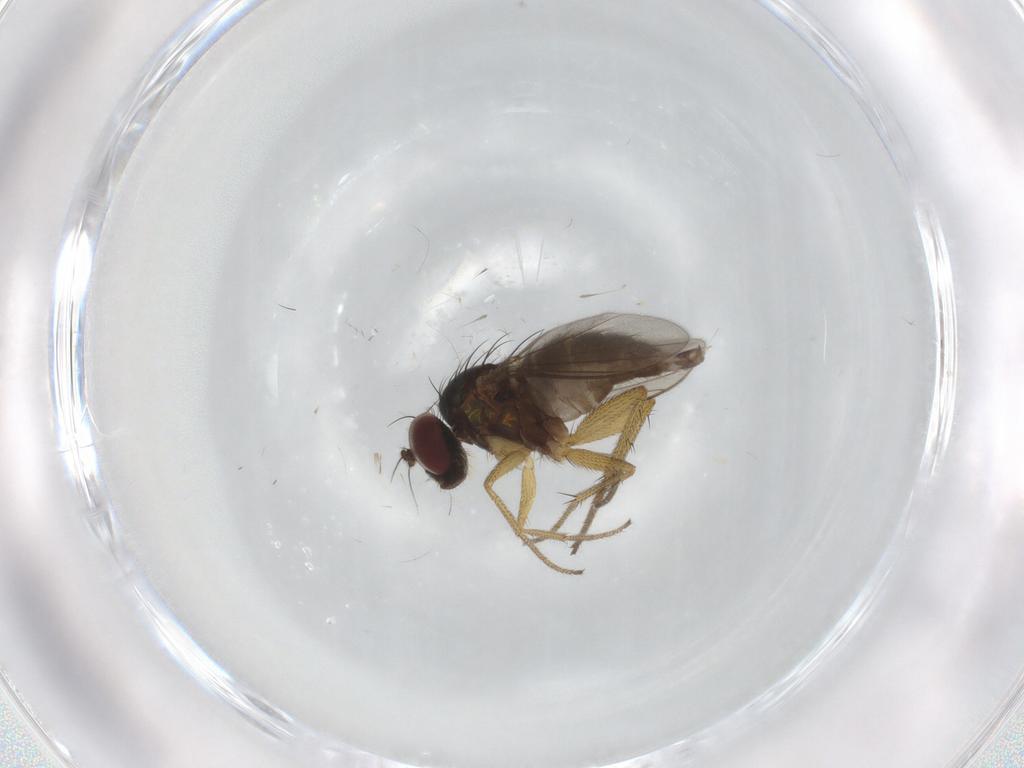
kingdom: Animalia
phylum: Arthropoda
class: Insecta
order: Diptera
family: Dolichopodidae
